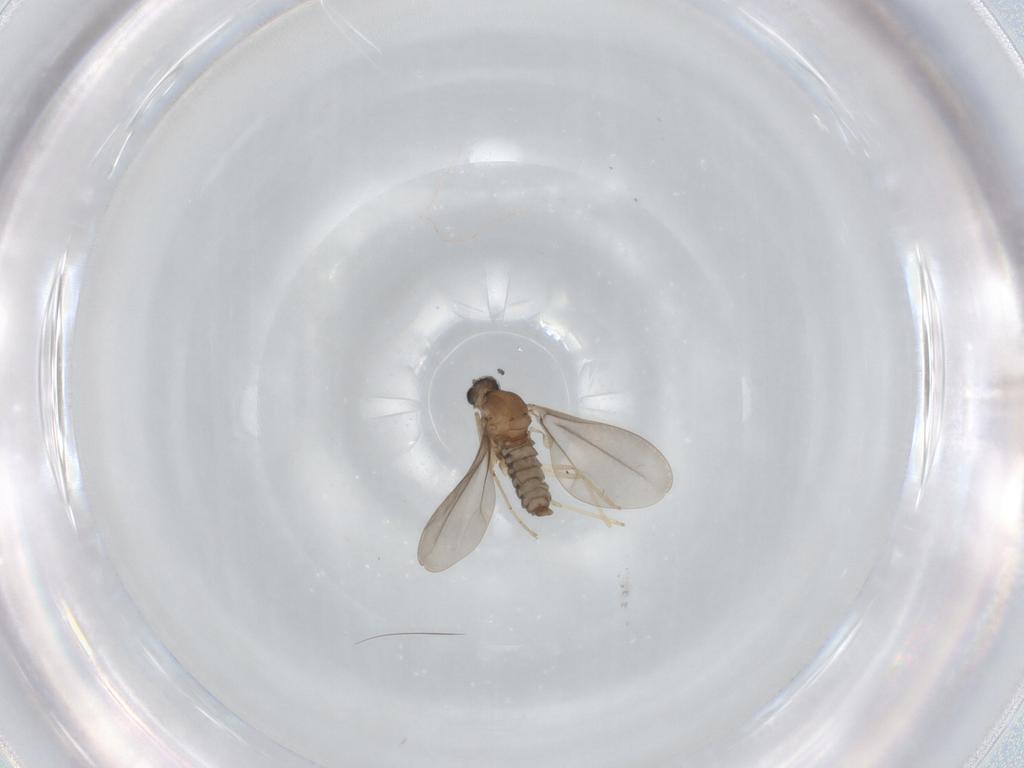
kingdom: Animalia
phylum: Arthropoda
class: Insecta
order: Diptera
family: Cecidomyiidae
